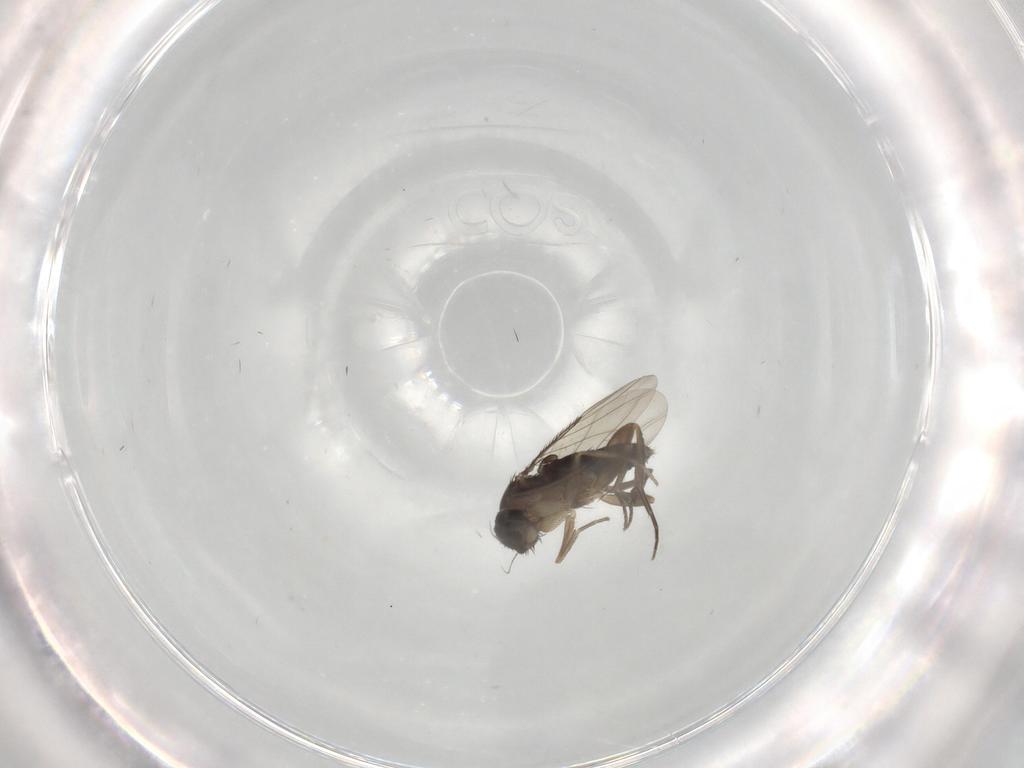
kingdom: Animalia
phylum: Arthropoda
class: Insecta
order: Diptera
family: Phoridae
